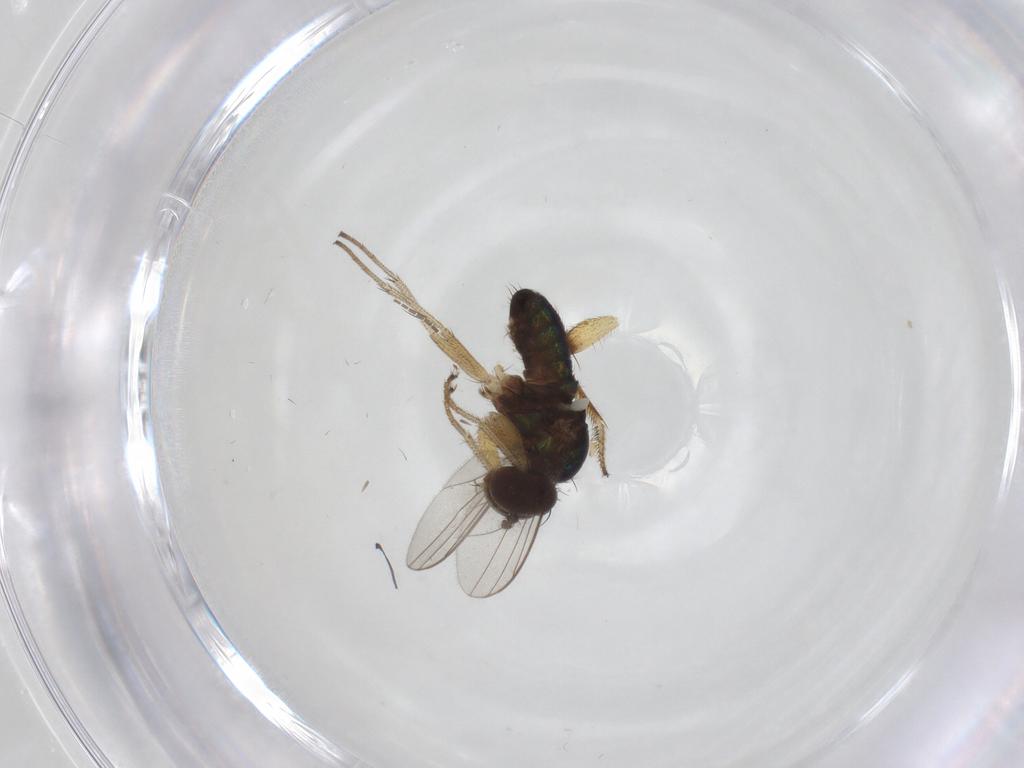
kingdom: Animalia
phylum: Arthropoda
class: Insecta
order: Diptera
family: Dolichopodidae
